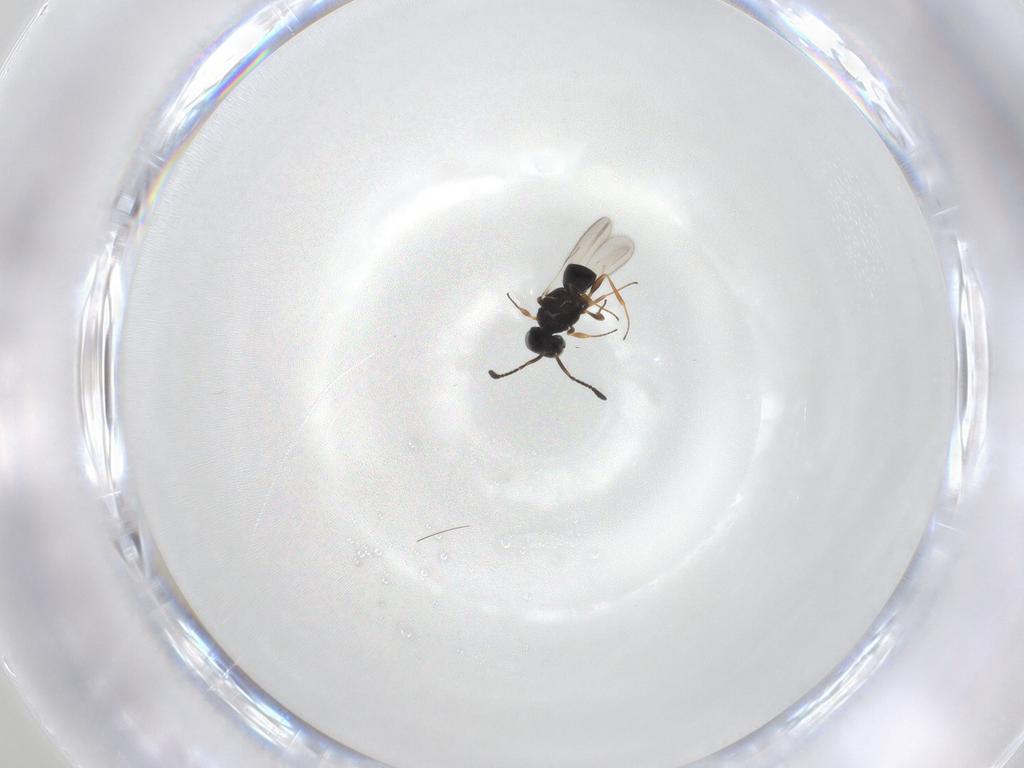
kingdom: Animalia
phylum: Arthropoda
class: Insecta
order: Hymenoptera
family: Scelionidae
